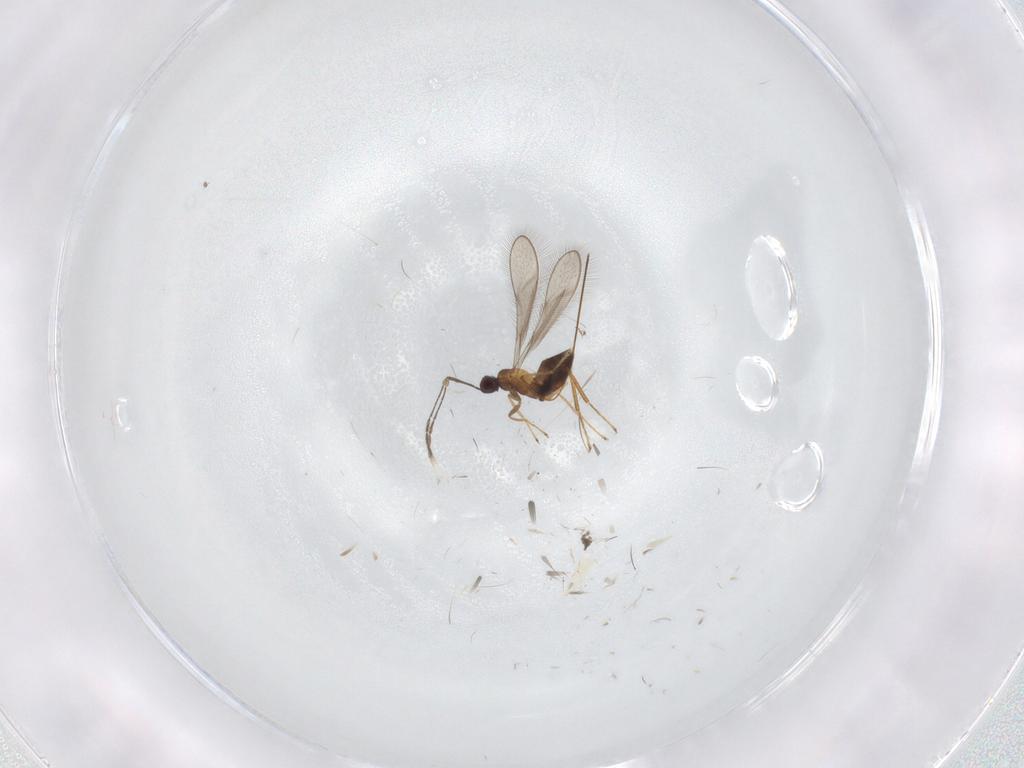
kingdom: Animalia
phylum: Arthropoda
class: Insecta
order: Hymenoptera
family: Mymaridae
